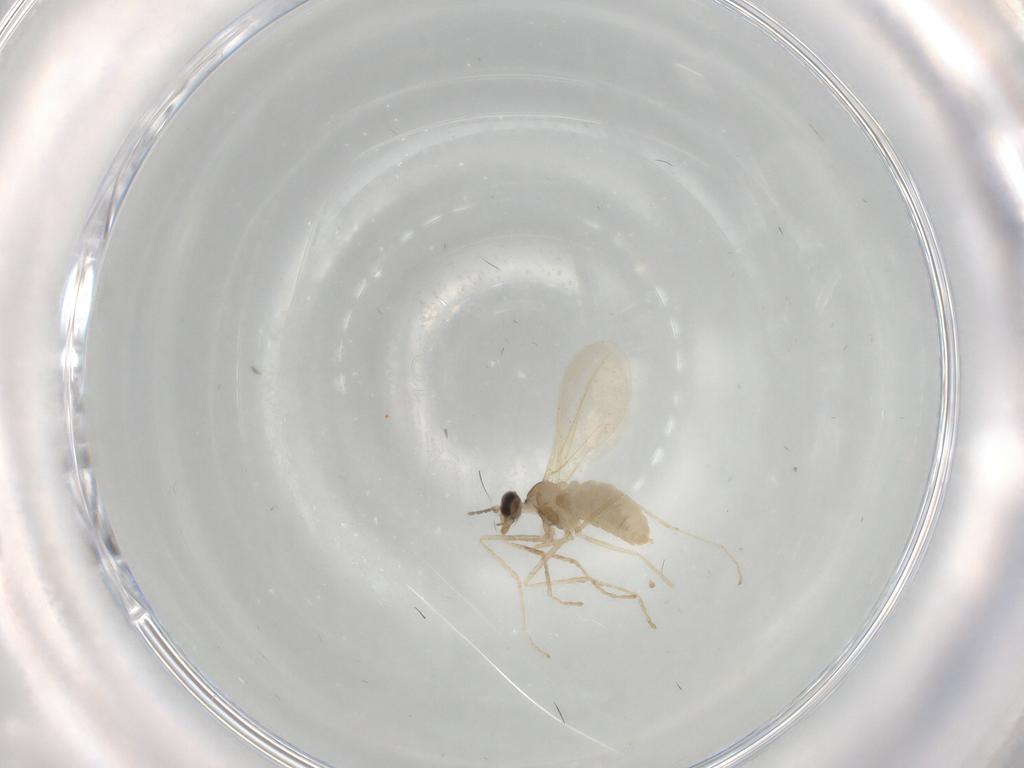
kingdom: Animalia
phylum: Arthropoda
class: Insecta
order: Diptera
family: Cecidomyiidae
